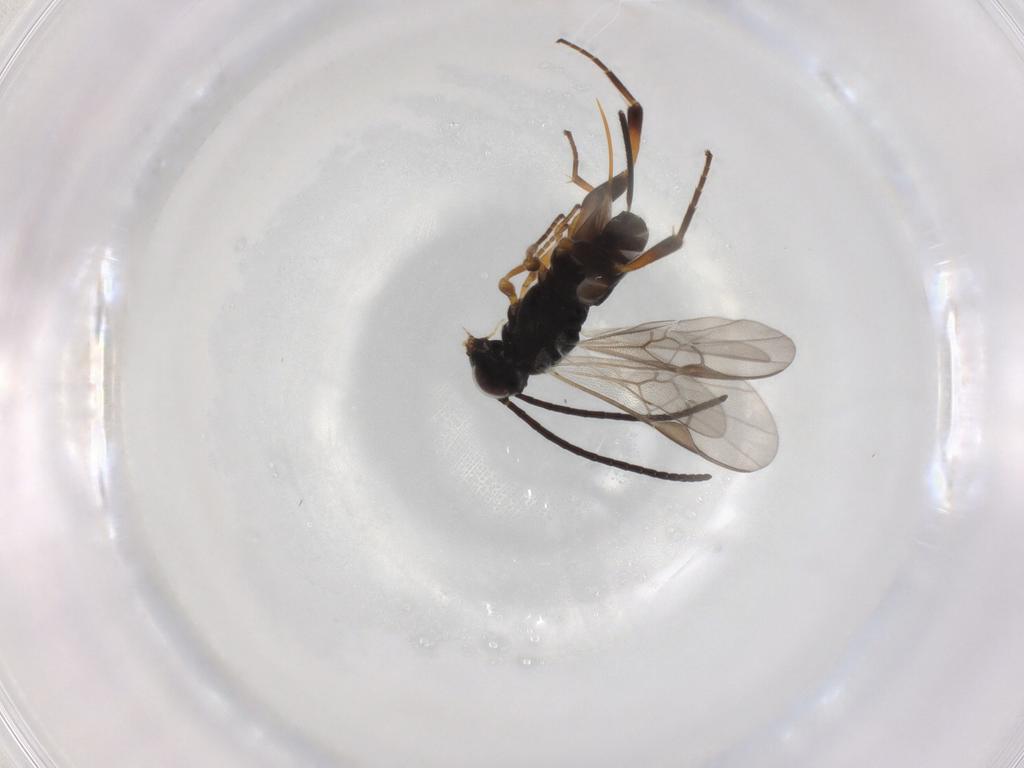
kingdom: Animalia
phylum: Arthropoda
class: Insecta
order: Hymenoptera
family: Braconidae
